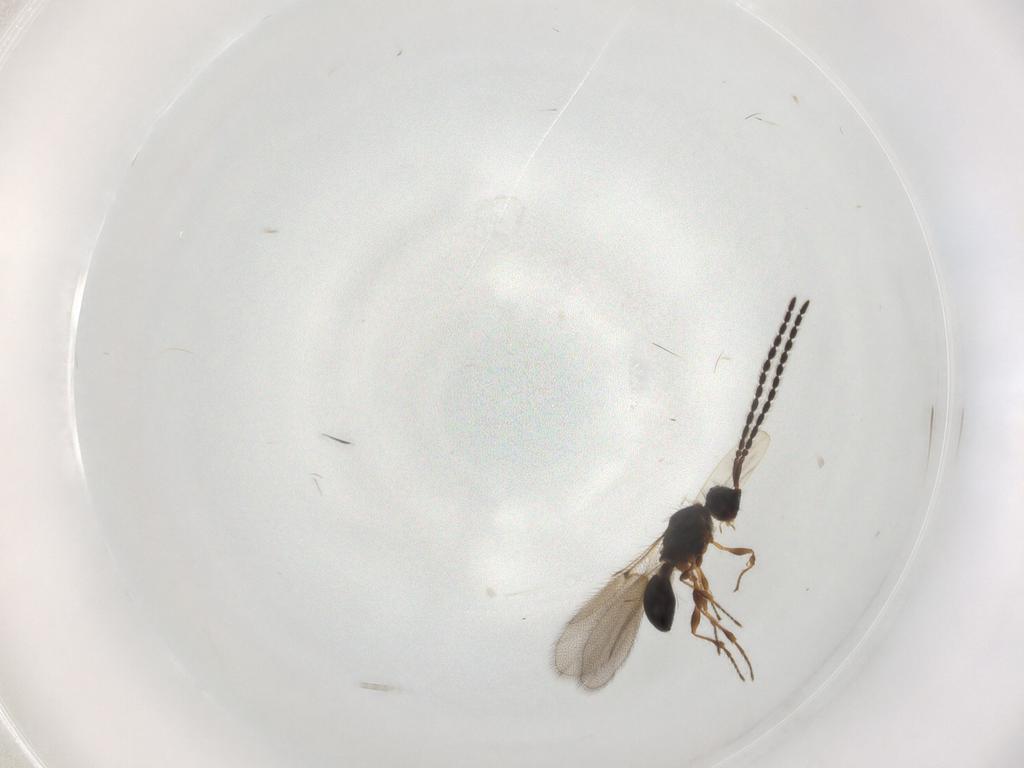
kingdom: Animalia
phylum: Arthropoda
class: Insecta
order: Hymenoptera
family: Diapriidae
